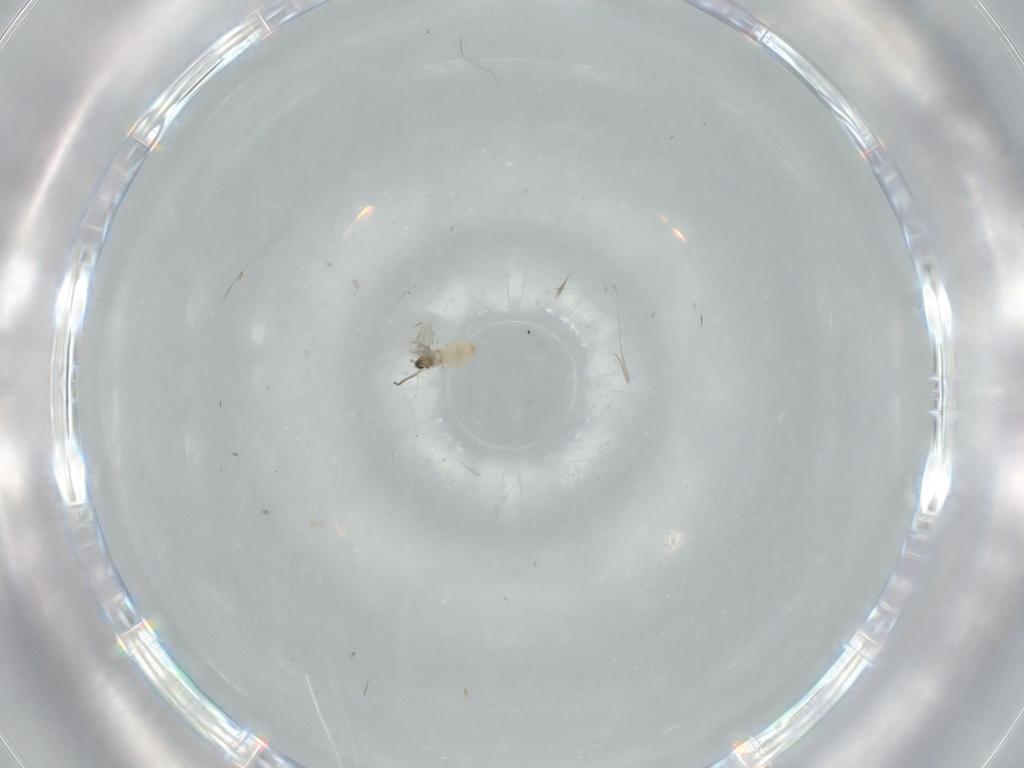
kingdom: Animalia
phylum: Arthropoda
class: Insecta
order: Diptera
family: Cecidomyiidae
